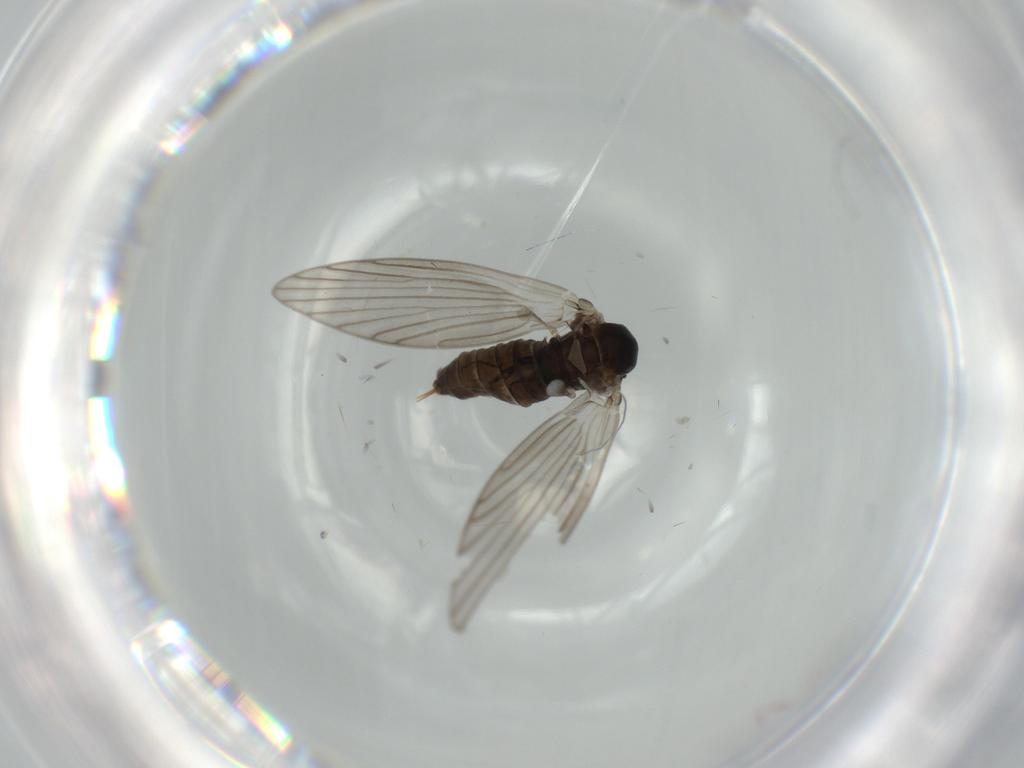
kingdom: Animalia
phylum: Arthropoda
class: Insecta
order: Diptera
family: Psychodidae
